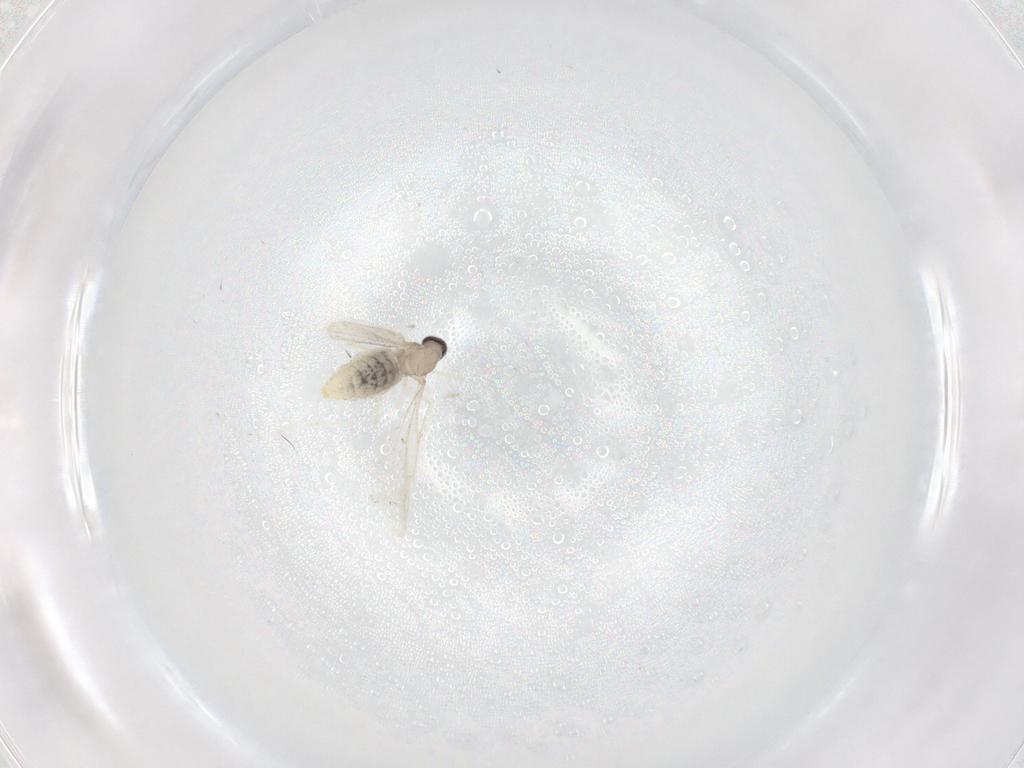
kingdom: Animalia
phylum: Arthropoda
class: Insecta
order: Diptera
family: Cecidomyiidae
